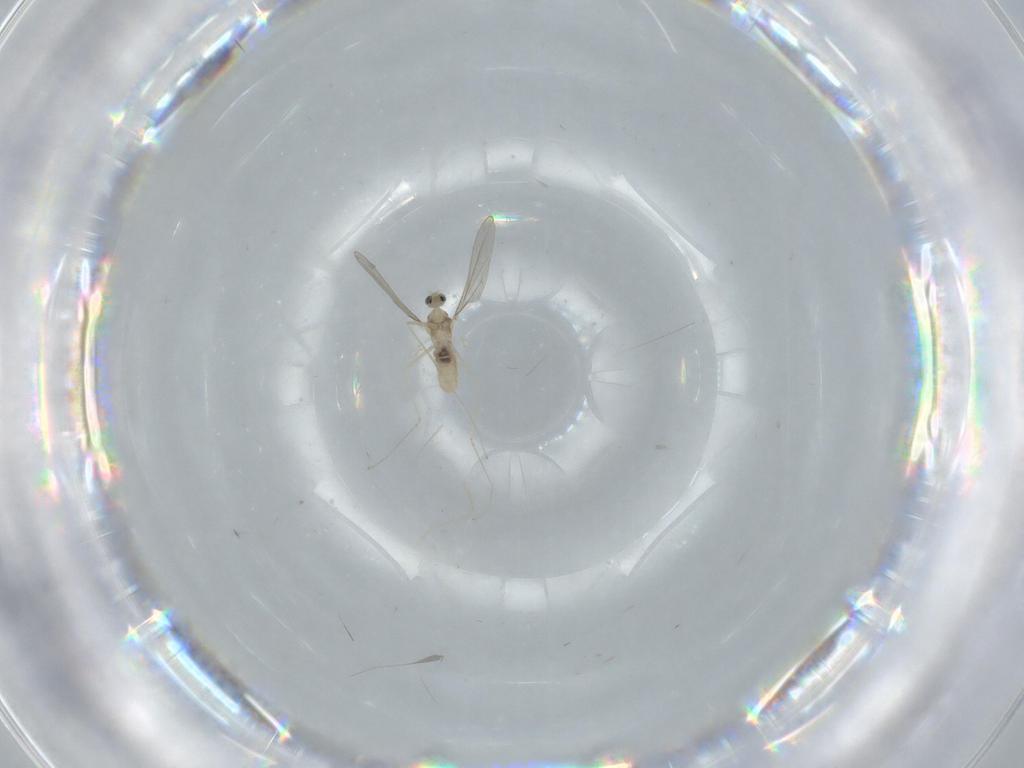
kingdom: Animalia
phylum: Arthropoda
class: Insecta
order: Diptera
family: Cecidomyiidae
